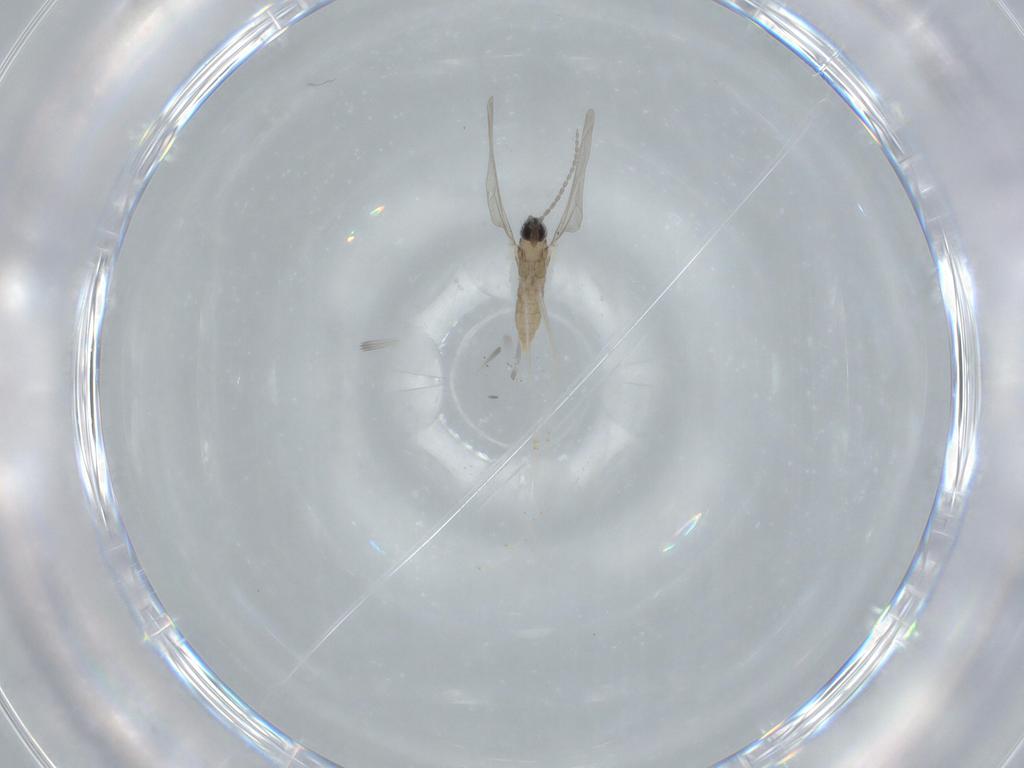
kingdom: Animalia
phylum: Arthropoda
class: Insecta
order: Diptera
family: Cecidomyiidae
